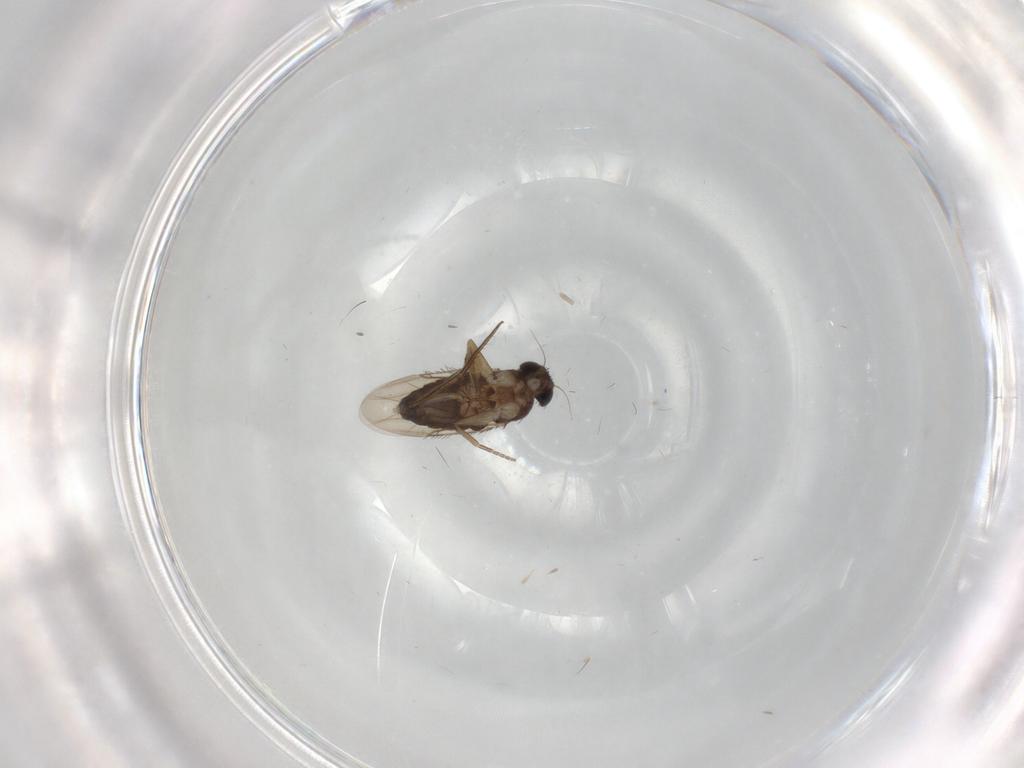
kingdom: Animalia
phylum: Arthropoda
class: Insecta
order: Diptera
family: Phoridae
